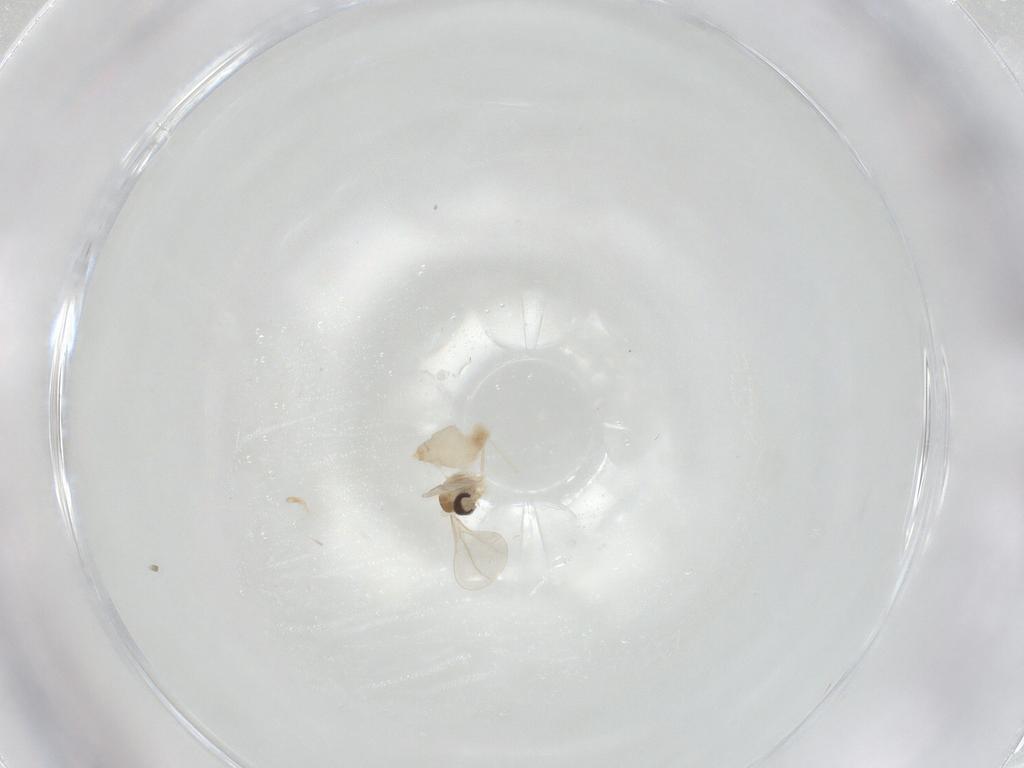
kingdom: Animalia
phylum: Arthropoda
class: Insecta
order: Diptera
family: Cecidomyiidae
